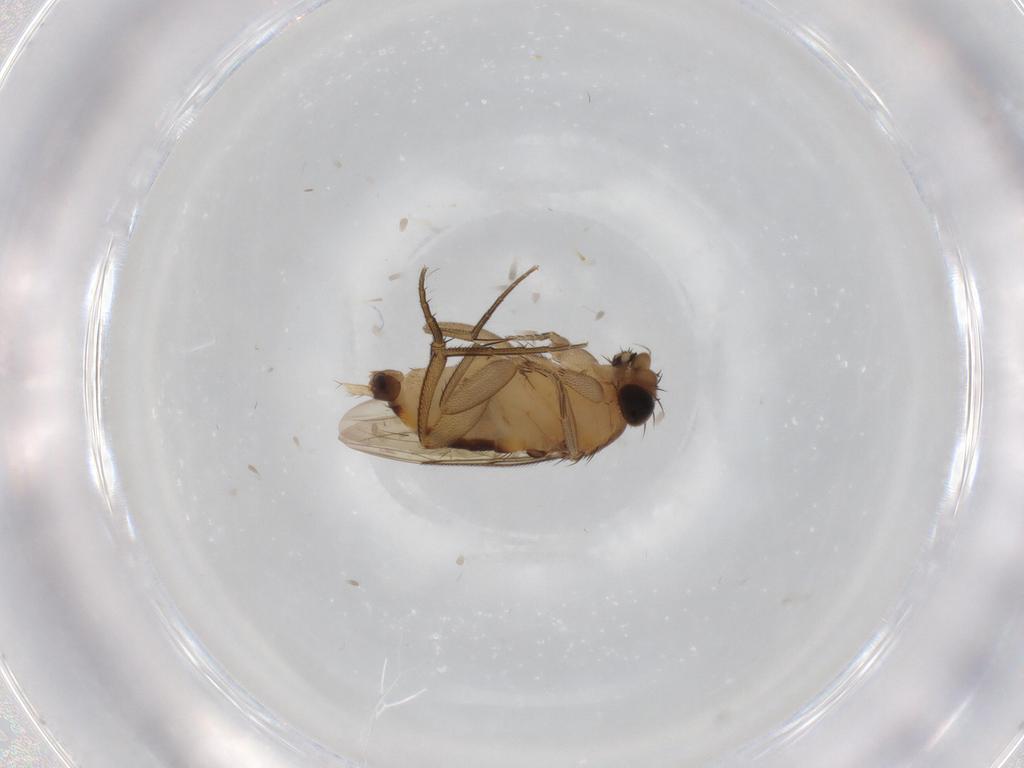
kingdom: Animalia
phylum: Arthropoda
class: Insecta
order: Diptera
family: Phoridae
